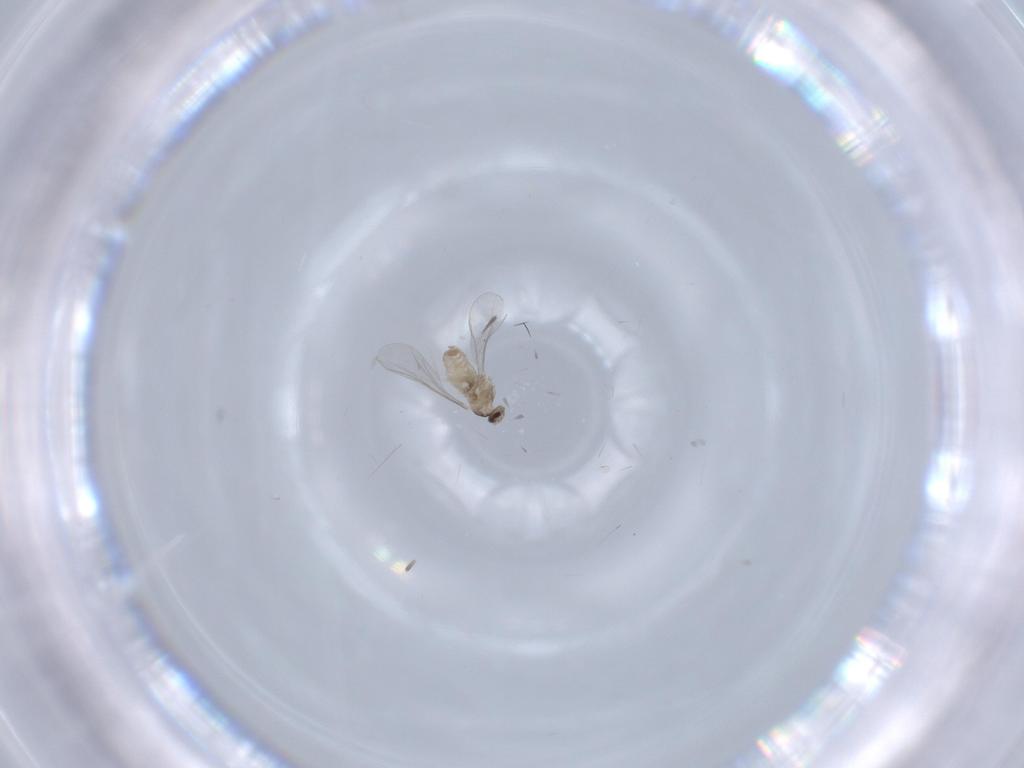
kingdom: Animalia
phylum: Arthropoda
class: Insecta
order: Diptera
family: Cecidomyiidae
